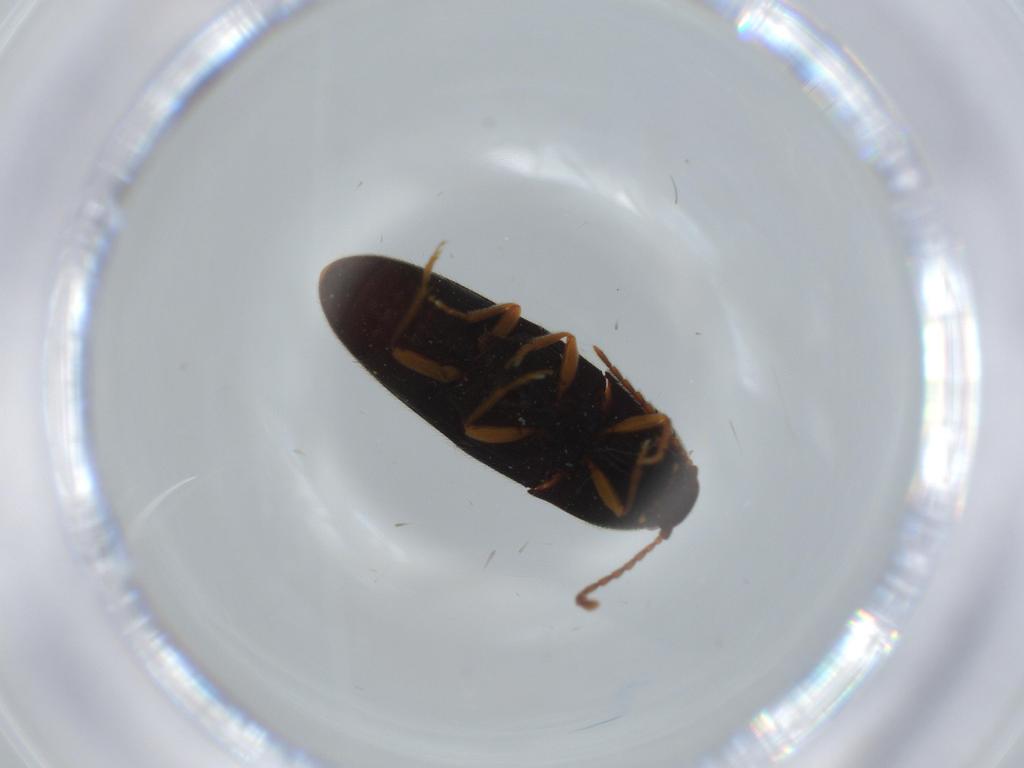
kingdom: Animalia
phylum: Arthropoda
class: Insecta
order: Coleoptera
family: Elateridae
